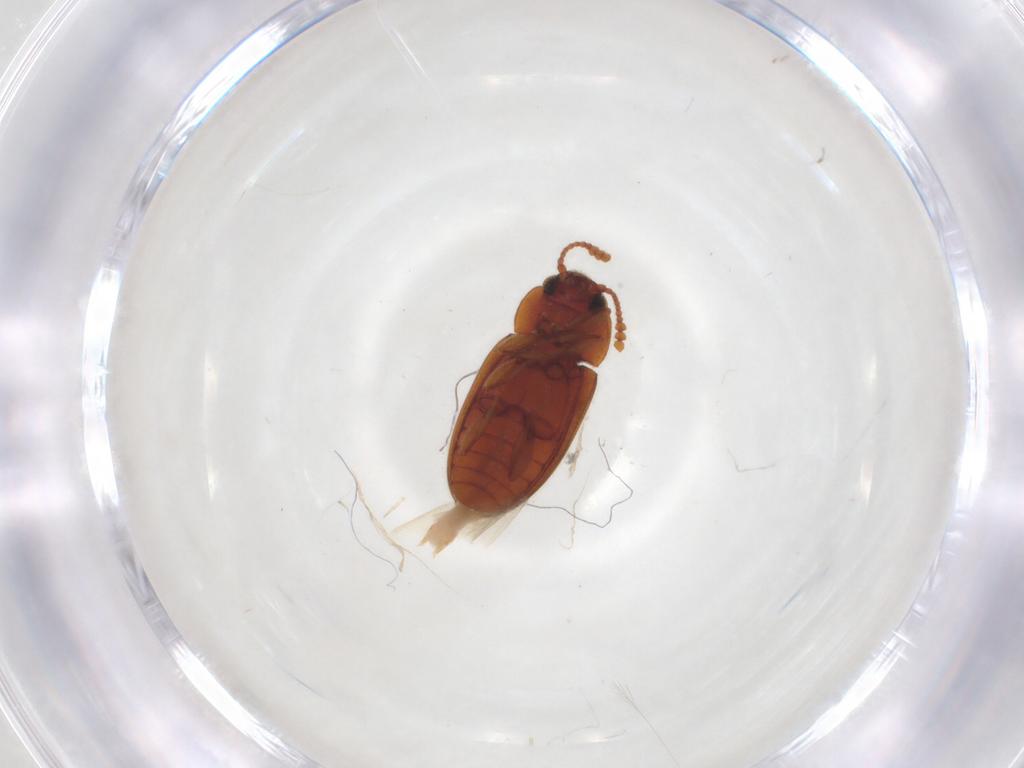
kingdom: Animalia
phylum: Arthropoda
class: Insecta
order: Coleoptera
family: Erotylidae
